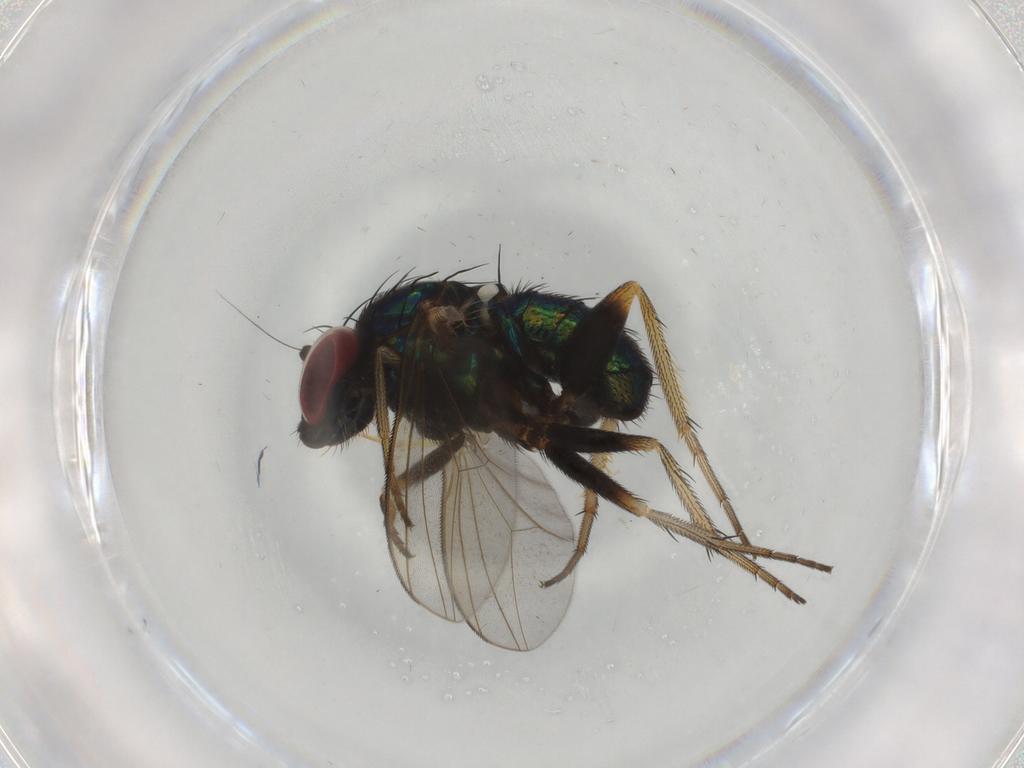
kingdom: Animalia
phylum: Arthropoda
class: Insecta
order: Diptera
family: Dolichopodidae
